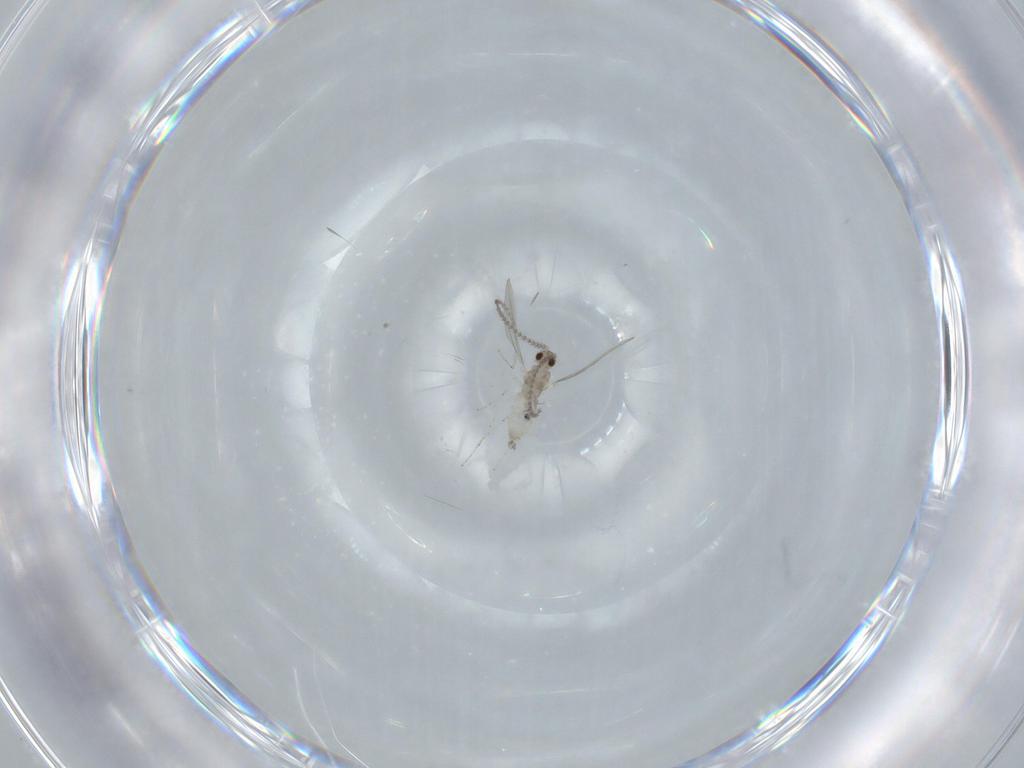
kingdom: Animalia
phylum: Arthropoda
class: Insecta
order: Diptera
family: Cecidomyiidae
